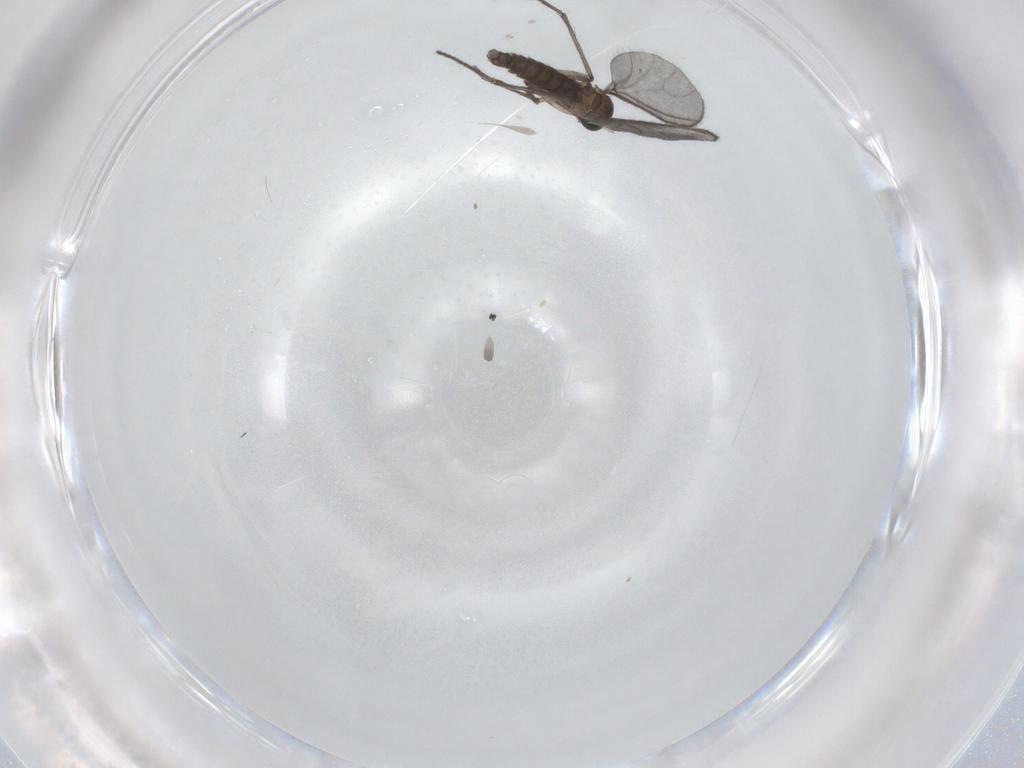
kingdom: Animalia
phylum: Arthropoda
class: Insecta
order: Diptera
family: Sciaridae
